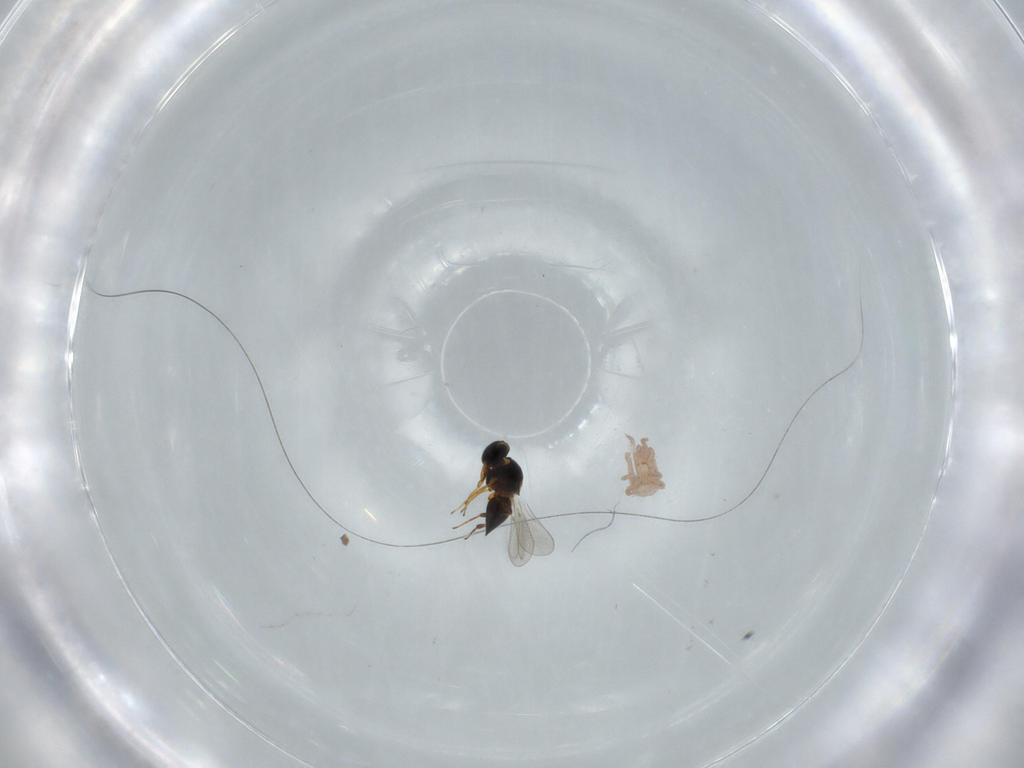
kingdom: Animalia
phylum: Arthropoda
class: Insecta
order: Hymenoptera
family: Platygastridae
